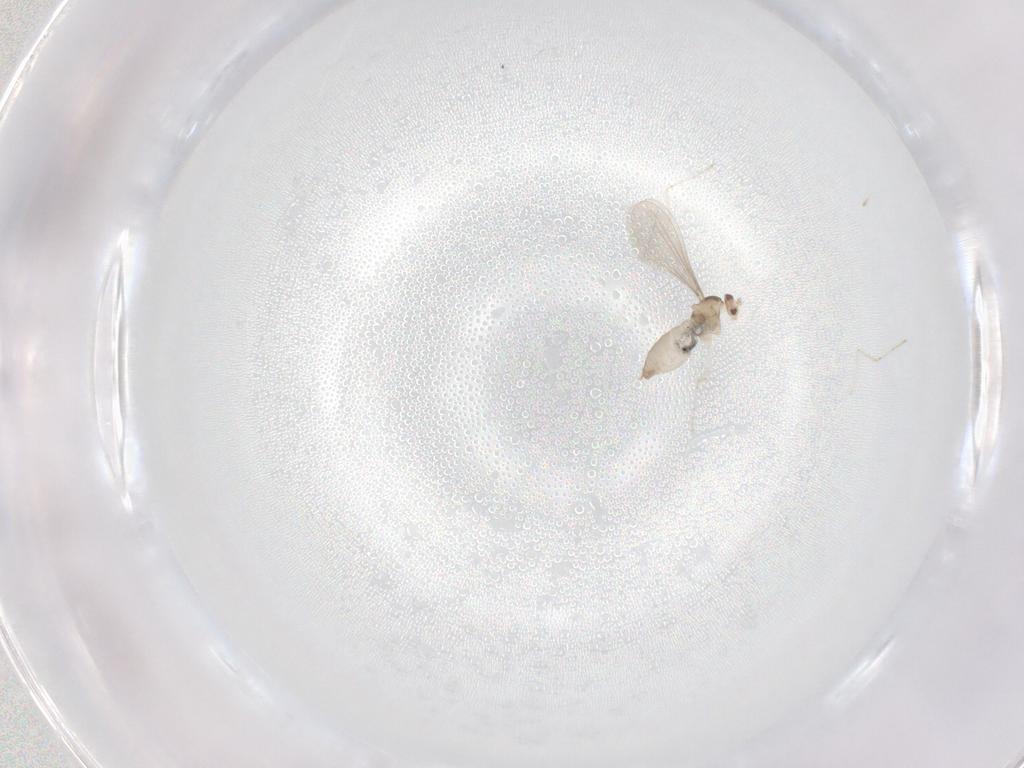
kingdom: Animalia
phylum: Arthropoda
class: Insecta
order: Diptera
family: Cecidomyiidae
